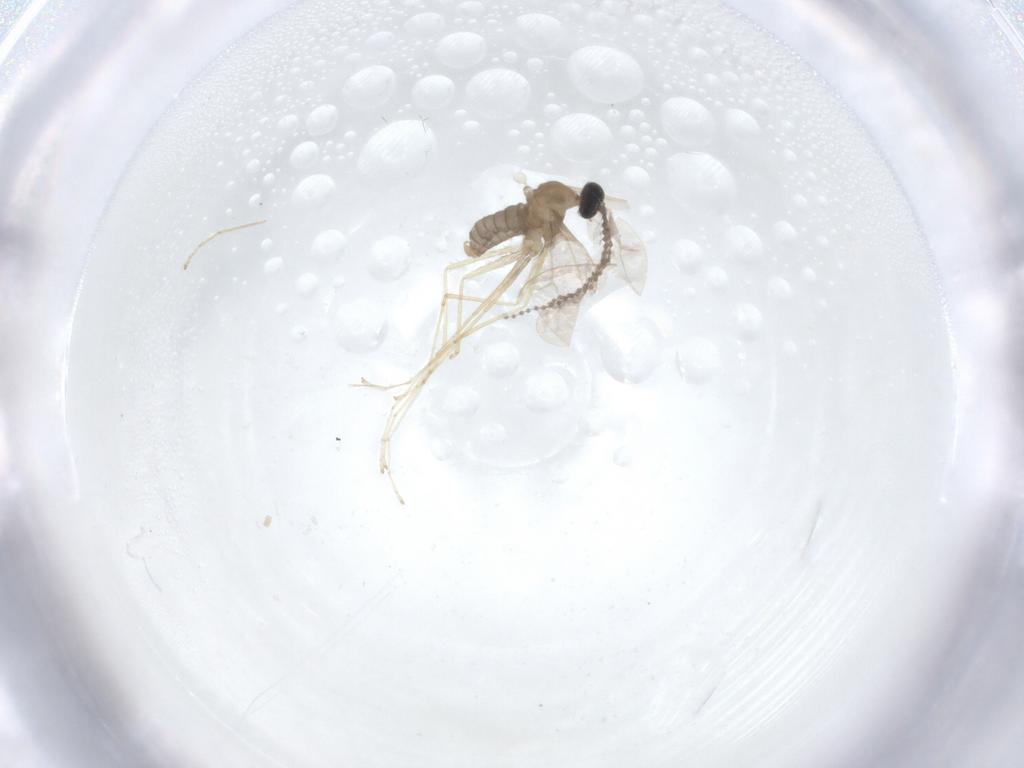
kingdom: Animalia
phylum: Arthropoda
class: Insecta
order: Diptera
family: Cecidomyiidae
